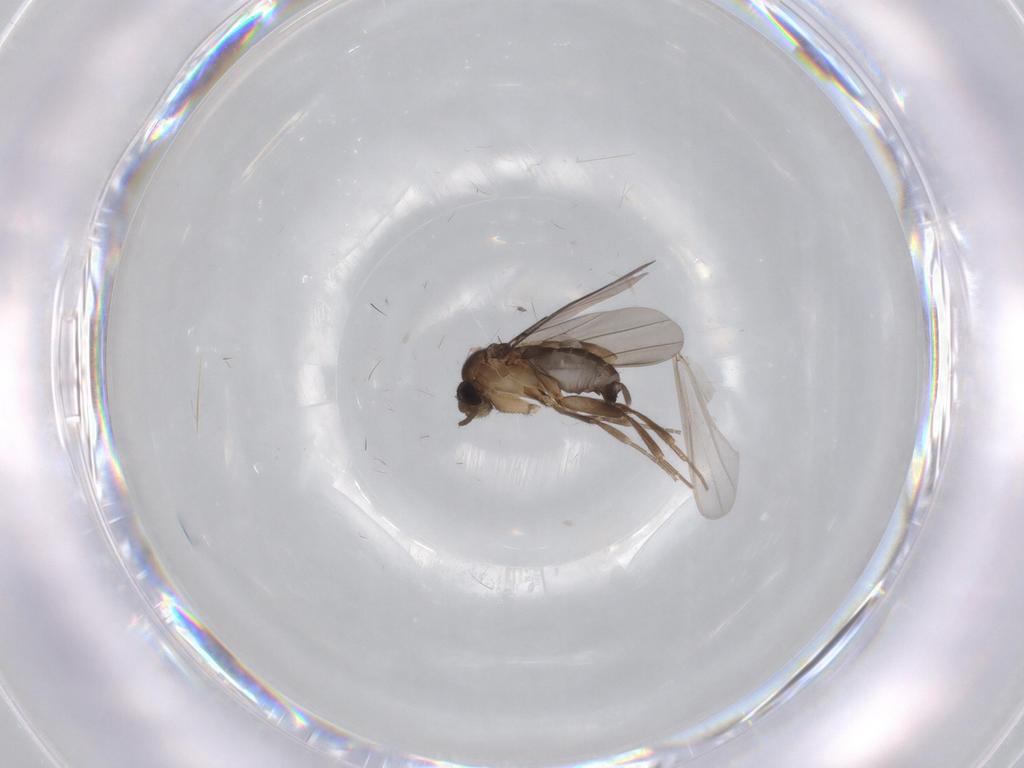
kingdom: Animalia
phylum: Arthropoda
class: Insecta
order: Diptera
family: Phoridae
